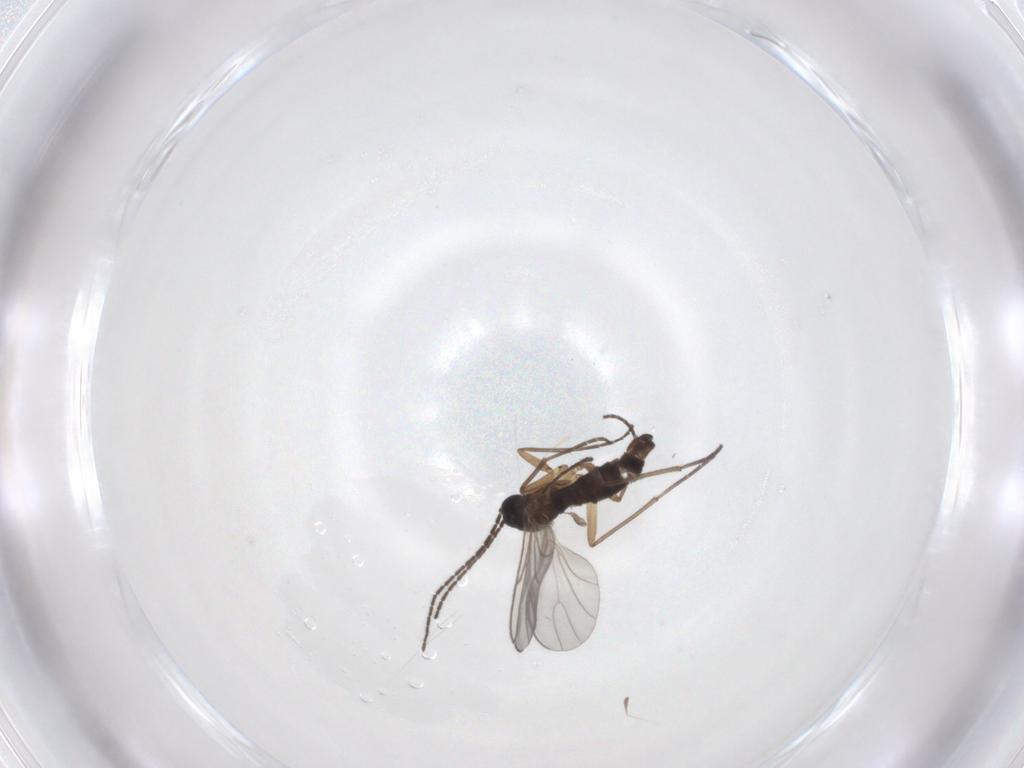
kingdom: Animalia
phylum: Arthropoda
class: Insecta
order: Diptera
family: Sciaridae
